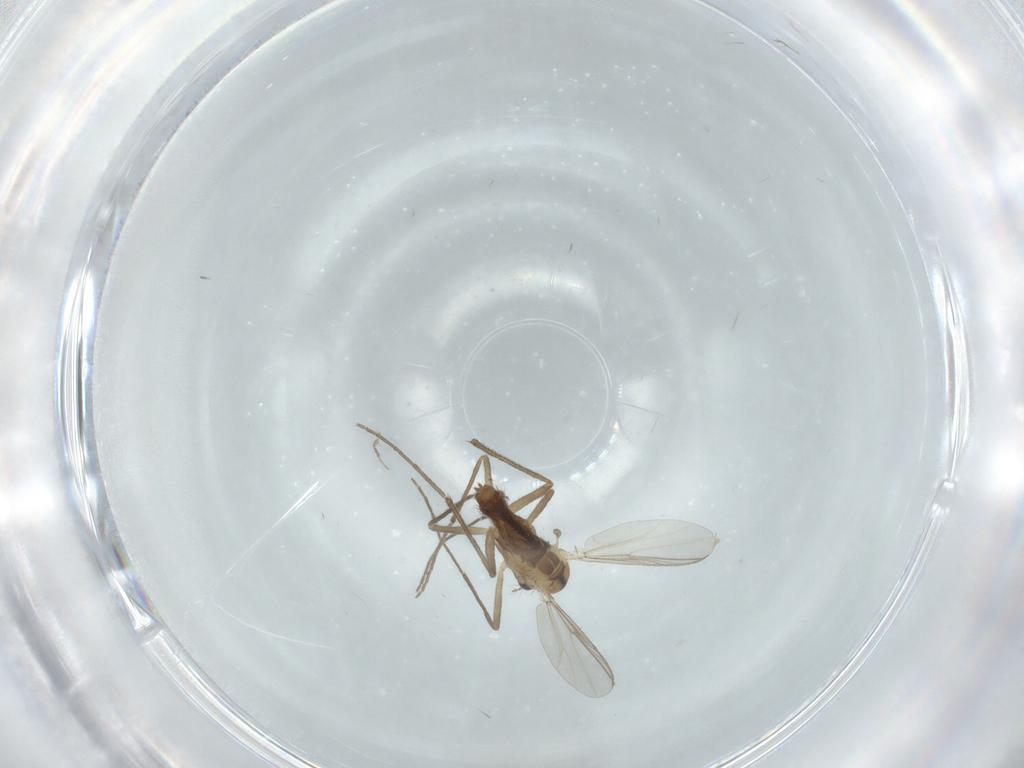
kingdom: Animalia
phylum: Arthropoda
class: Insecta
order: Diptera
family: Chironomidae
